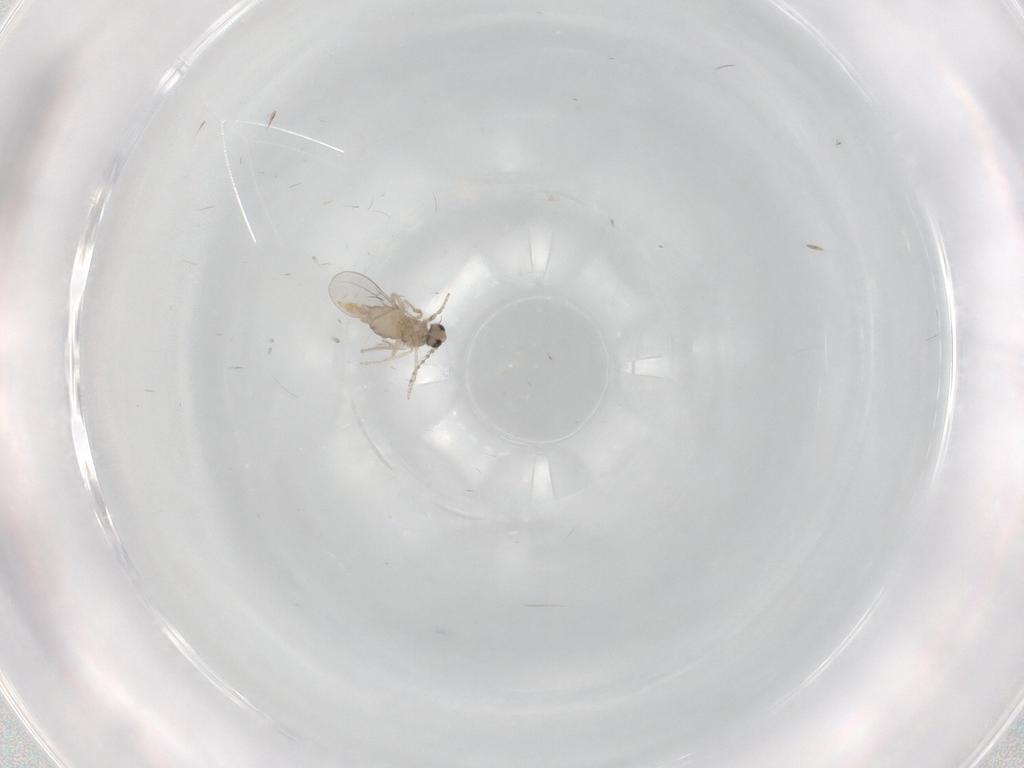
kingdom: Animalia
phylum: Arthropoda
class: Insecta
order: Diptera
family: Cecidomyiidae
